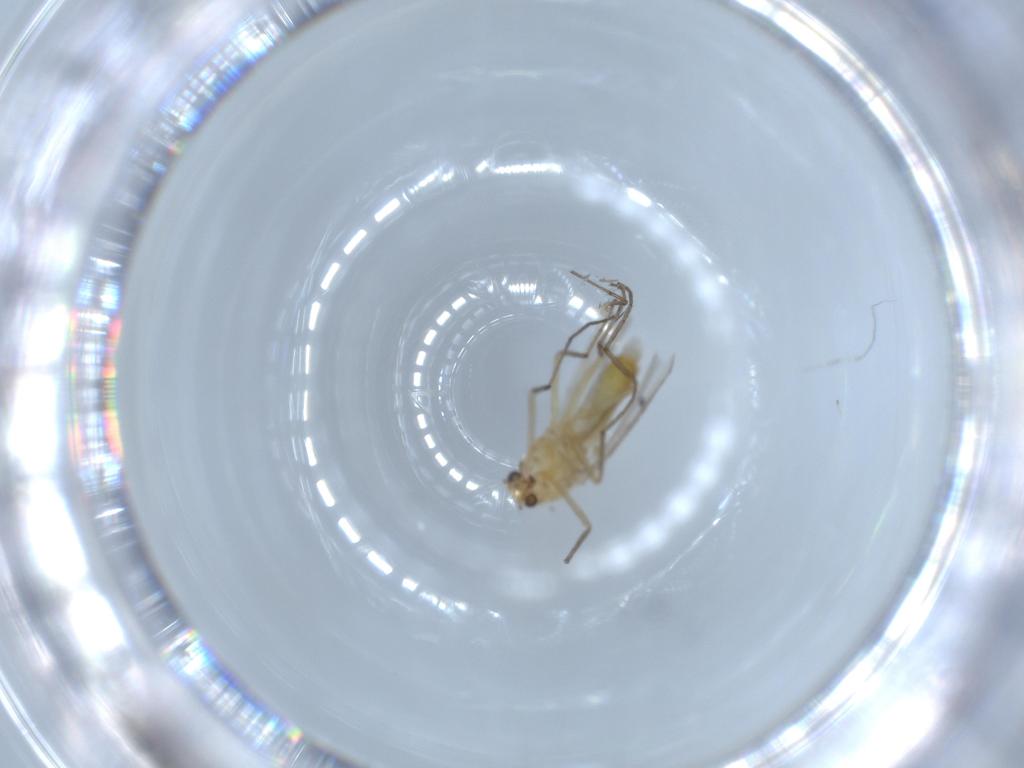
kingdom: Animalia
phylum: Arthropoda
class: Insecta
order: Diptera
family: Chironomidae
